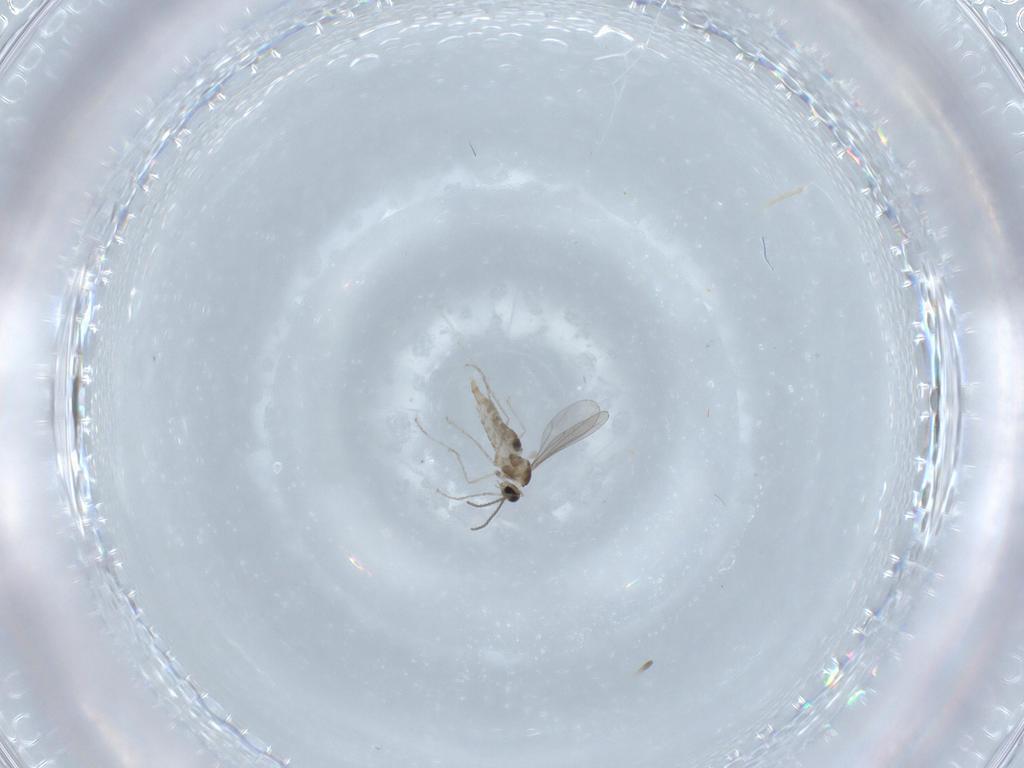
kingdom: Animalia
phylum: Arthropoda
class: Insecta
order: Diptera
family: Cecidomyiidae
